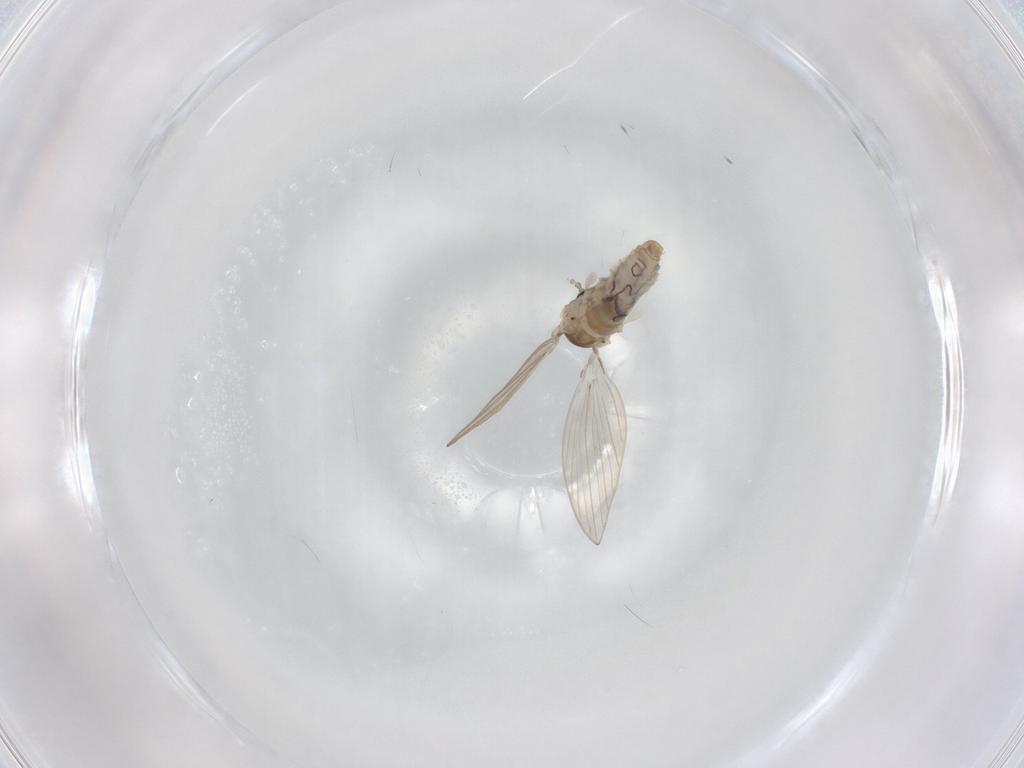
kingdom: Animalia
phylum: Arthropoda
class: Insecta
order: Diptera
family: Psychodidae
